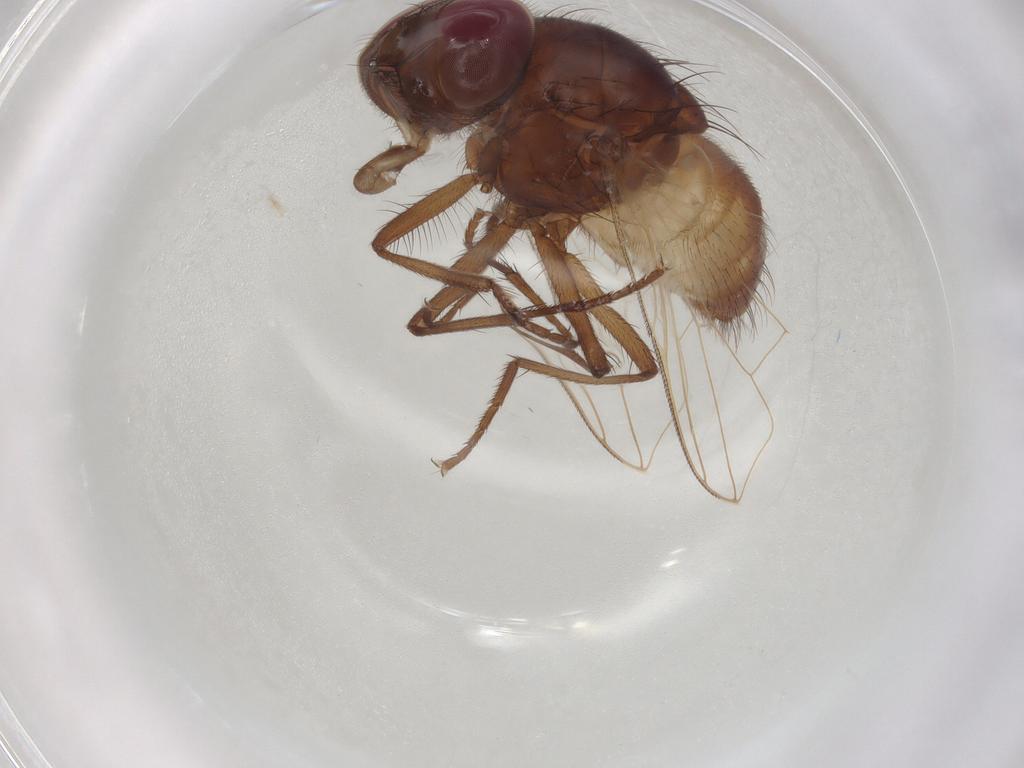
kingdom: Animalia
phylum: Arthropoda
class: Insecta
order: Diptera
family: Muscidae
